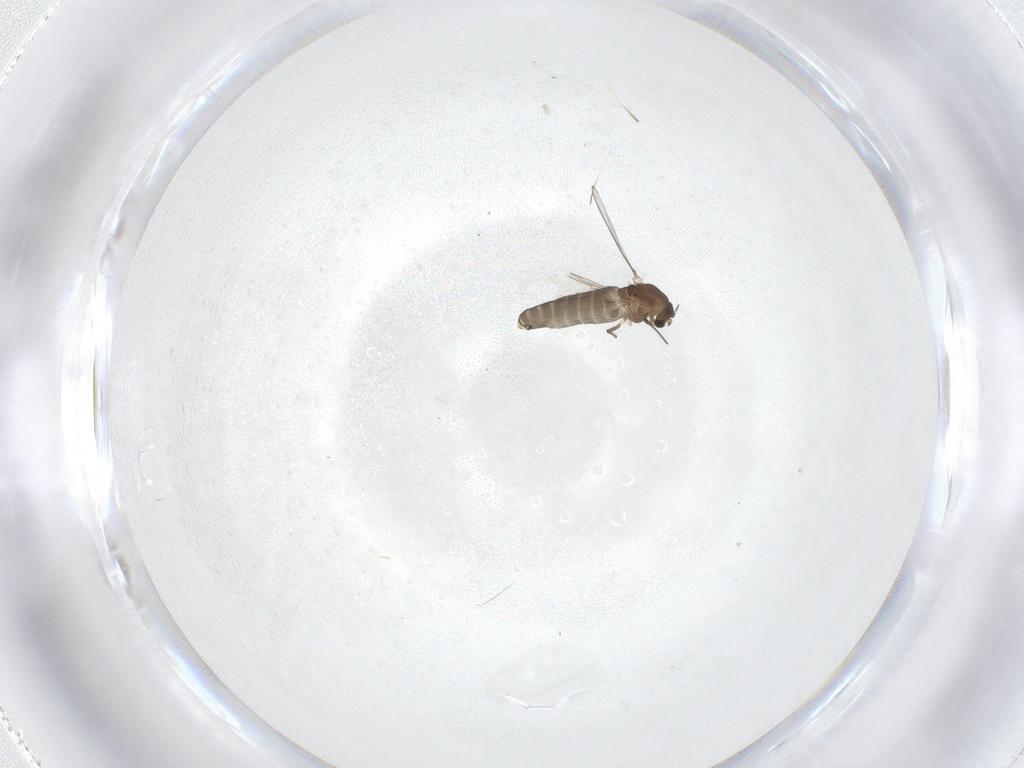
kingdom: Animalia
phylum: Arthropoda
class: Insecta
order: Diptera
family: Chironomidae
